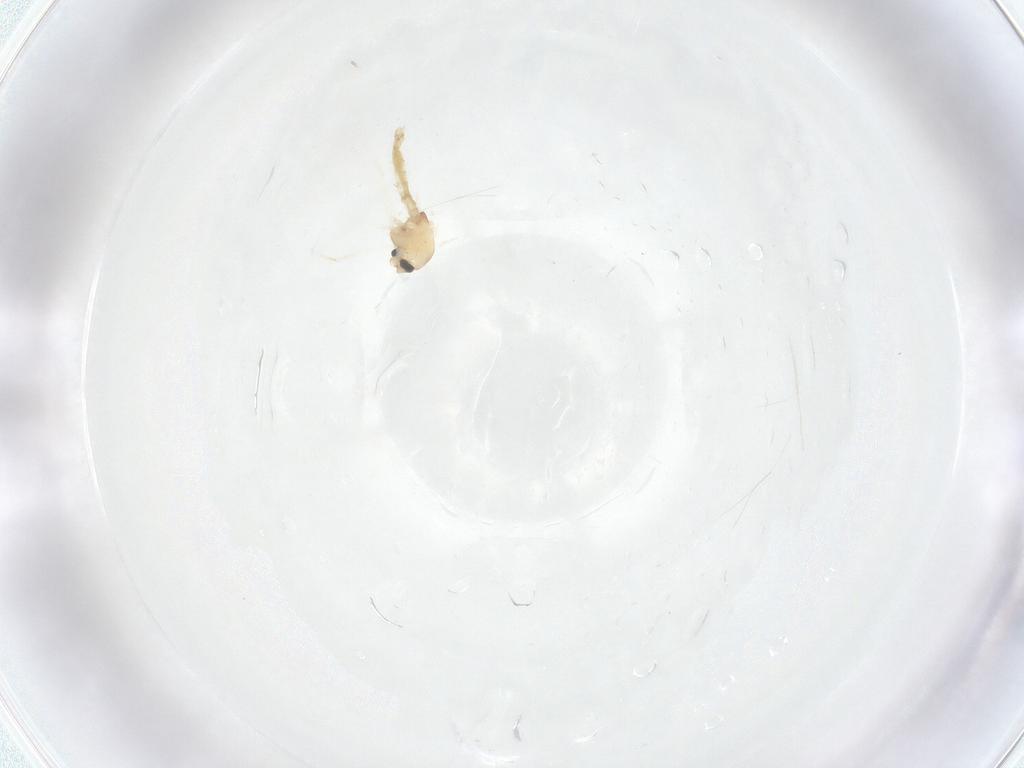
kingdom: Animalia
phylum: Arthropoda
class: Insecta
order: Diptera
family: Chironomidae
